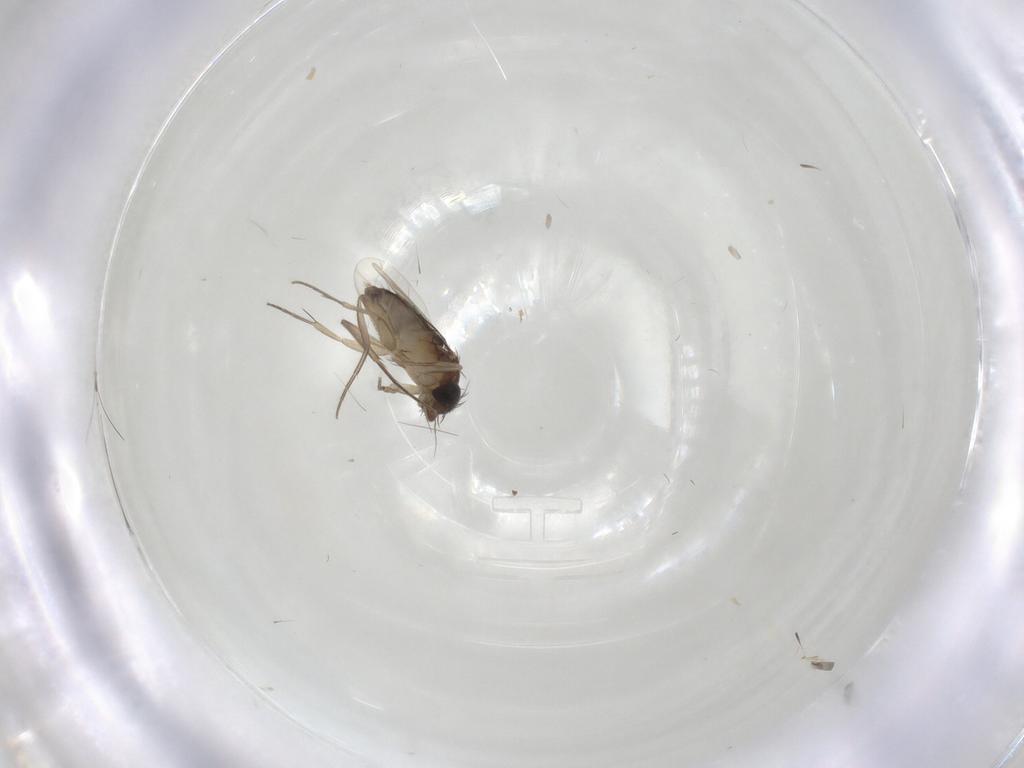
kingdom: Animalia
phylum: Arthropoda
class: Insecta
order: Diptera
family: Phoridae
